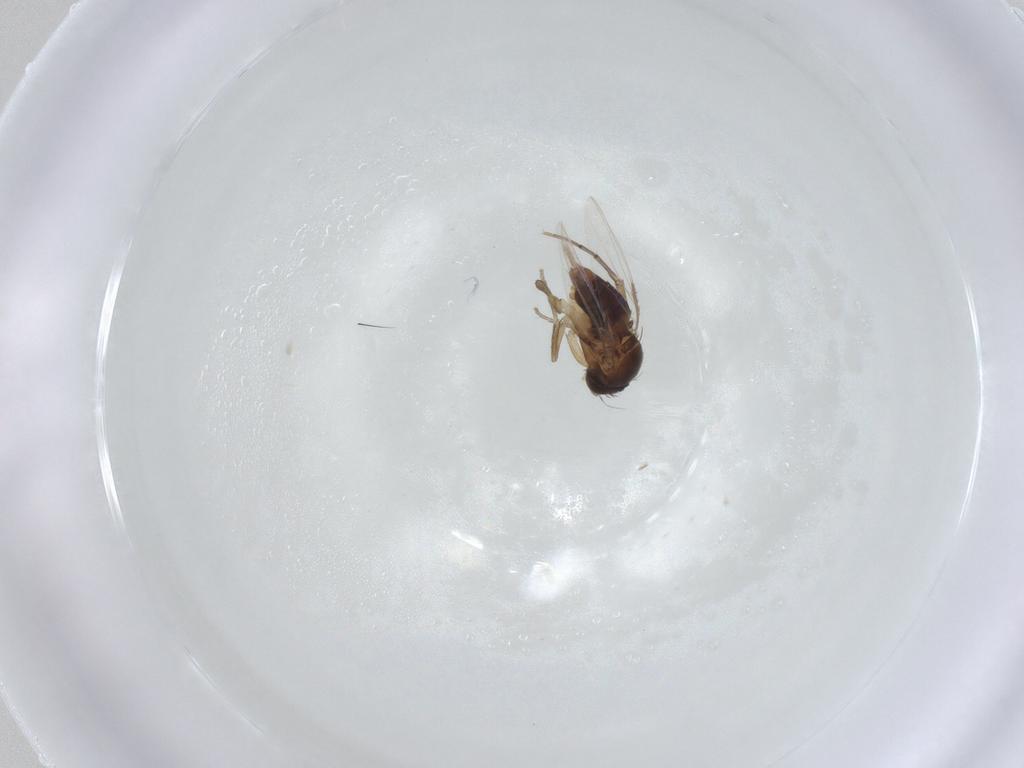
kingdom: Animalia
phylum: Arthropoda
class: Insecta
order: Diptera
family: Phoridae
